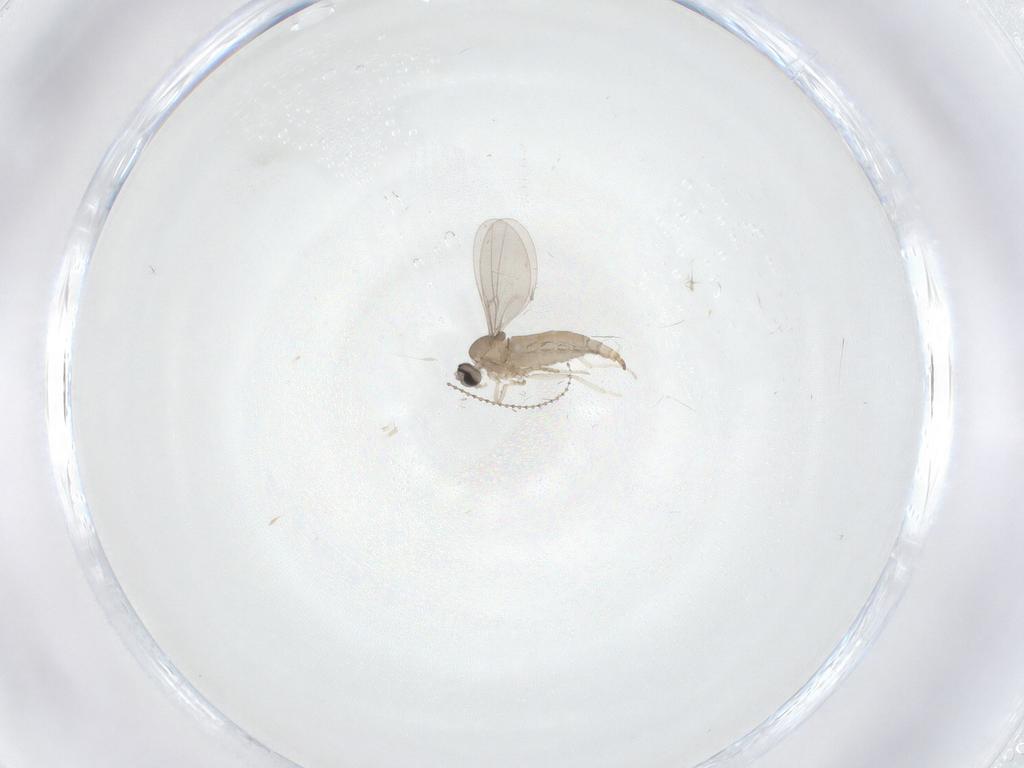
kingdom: Animalia
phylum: Arthropoda
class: Insecta
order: Diptera
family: Cecidomyiidae
